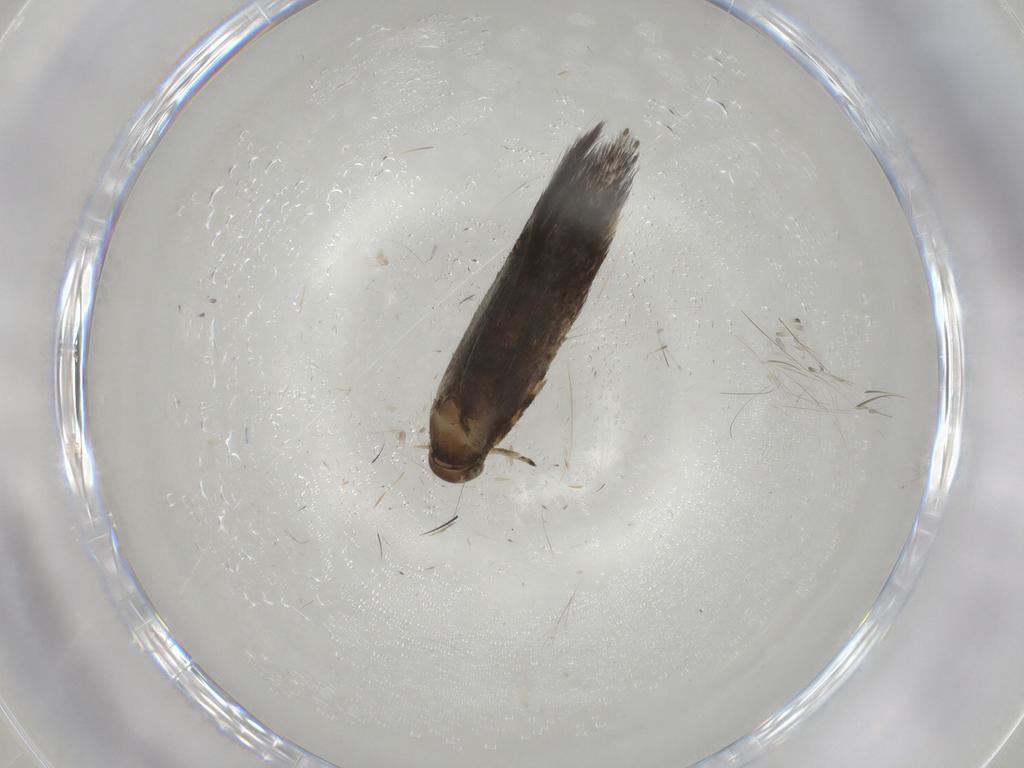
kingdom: Animalia
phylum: Arthropoda
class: Insecta
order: Lepidoptera
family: Elachistidae
